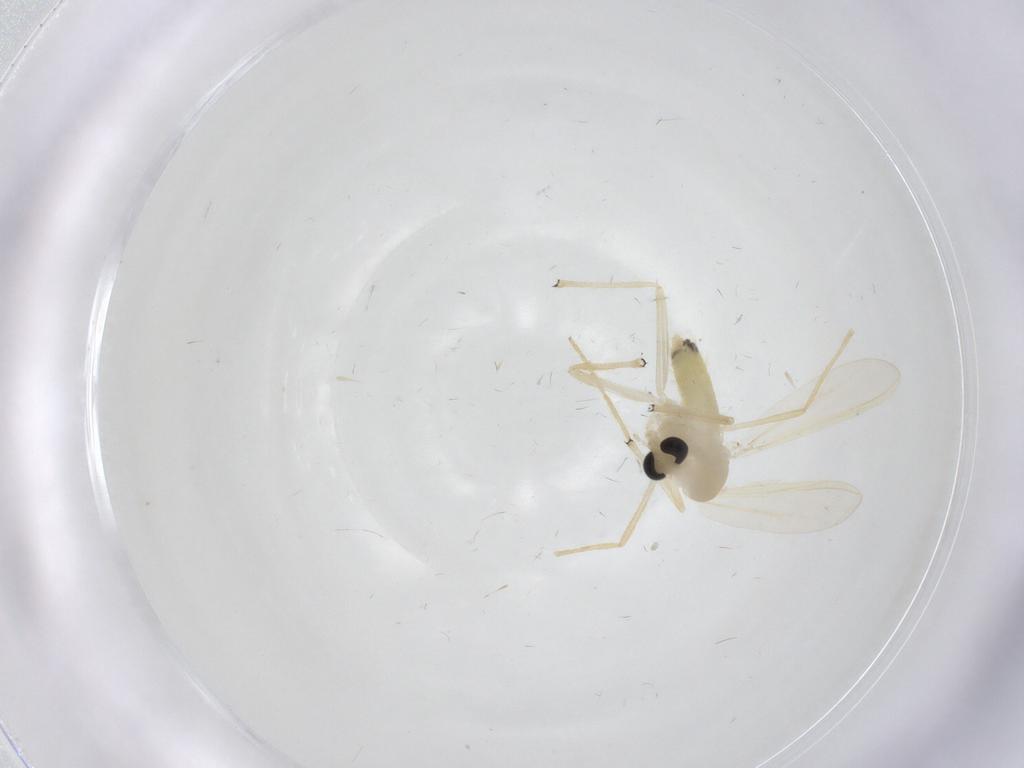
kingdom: Animalia
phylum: Arthropoda
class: Insecta
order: Diptera
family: Chironomidae
